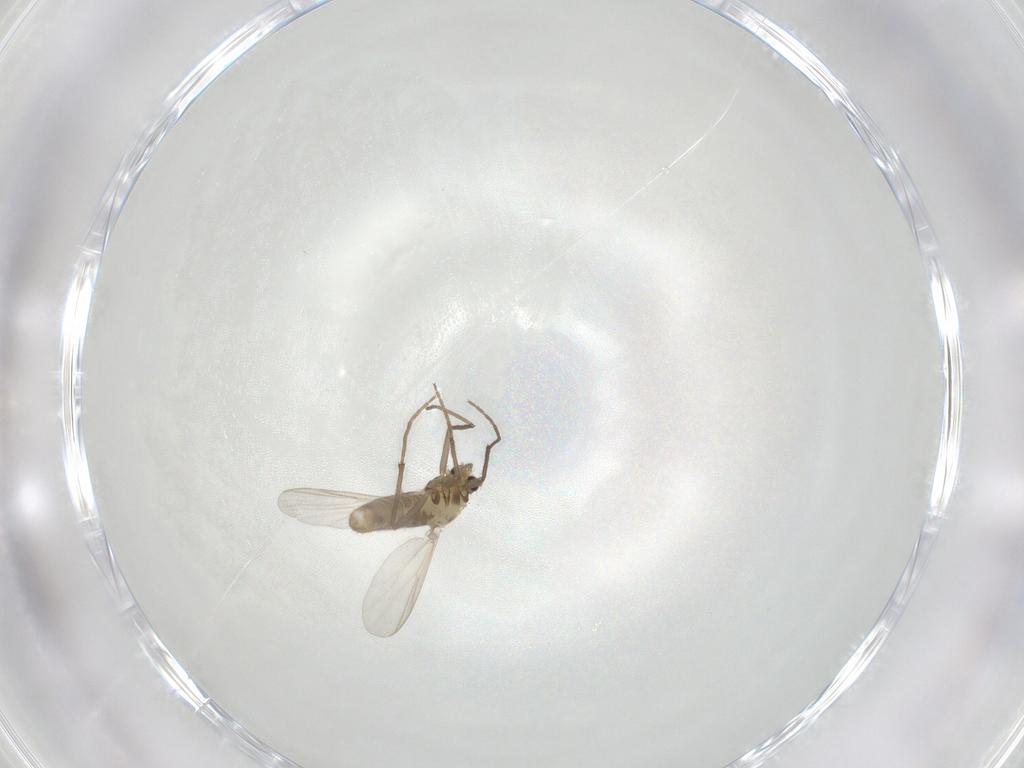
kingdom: Animalia
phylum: Arthropoda
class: Insecta
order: Diptera
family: Chironomidae
